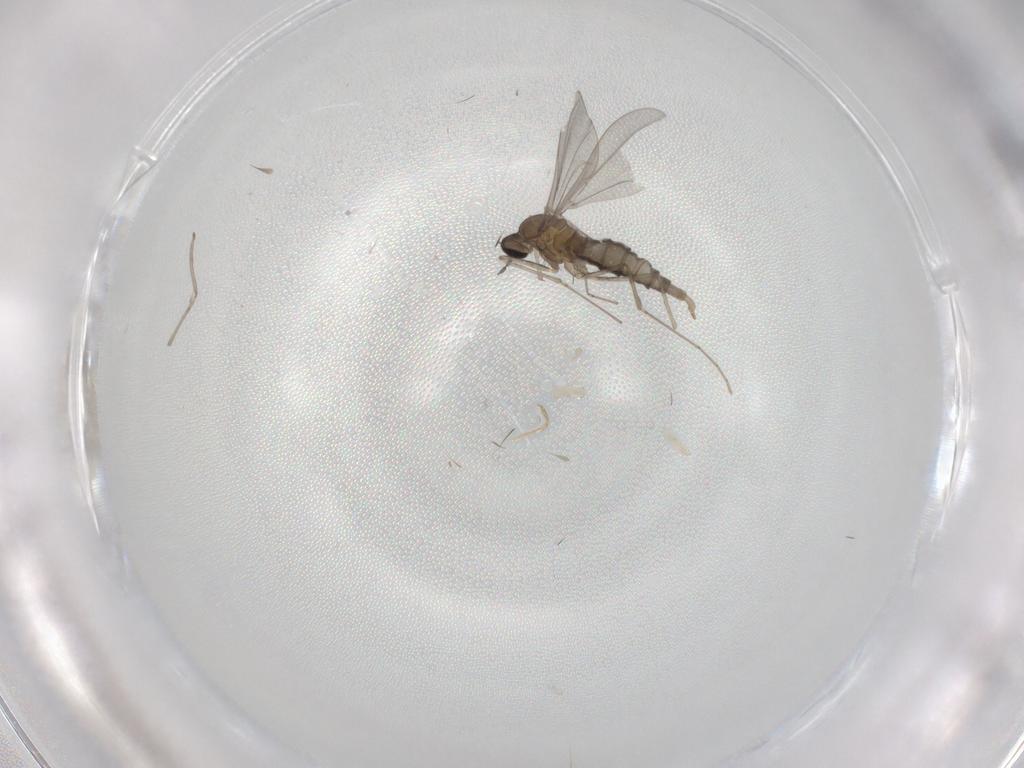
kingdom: Animalia
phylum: Arthropoda
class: Insecta
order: Diptera
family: Cecidomyiidae
